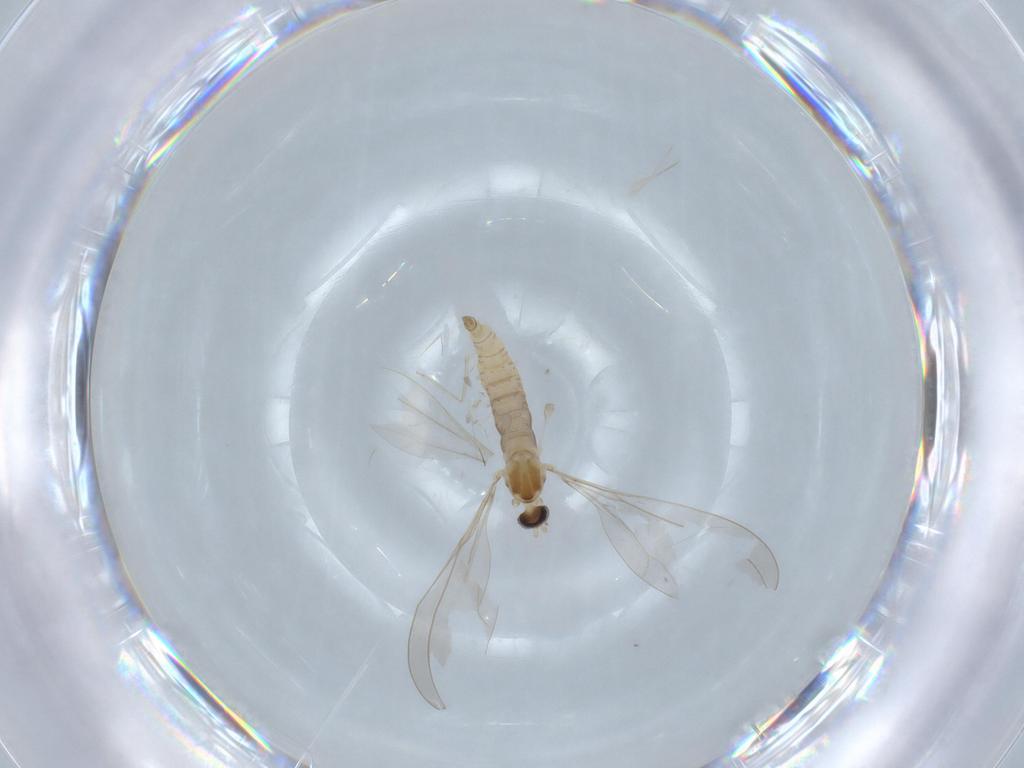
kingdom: Animalia
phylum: Arthropoda
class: Insecta
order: Diptera
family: Cecidomyiidae
